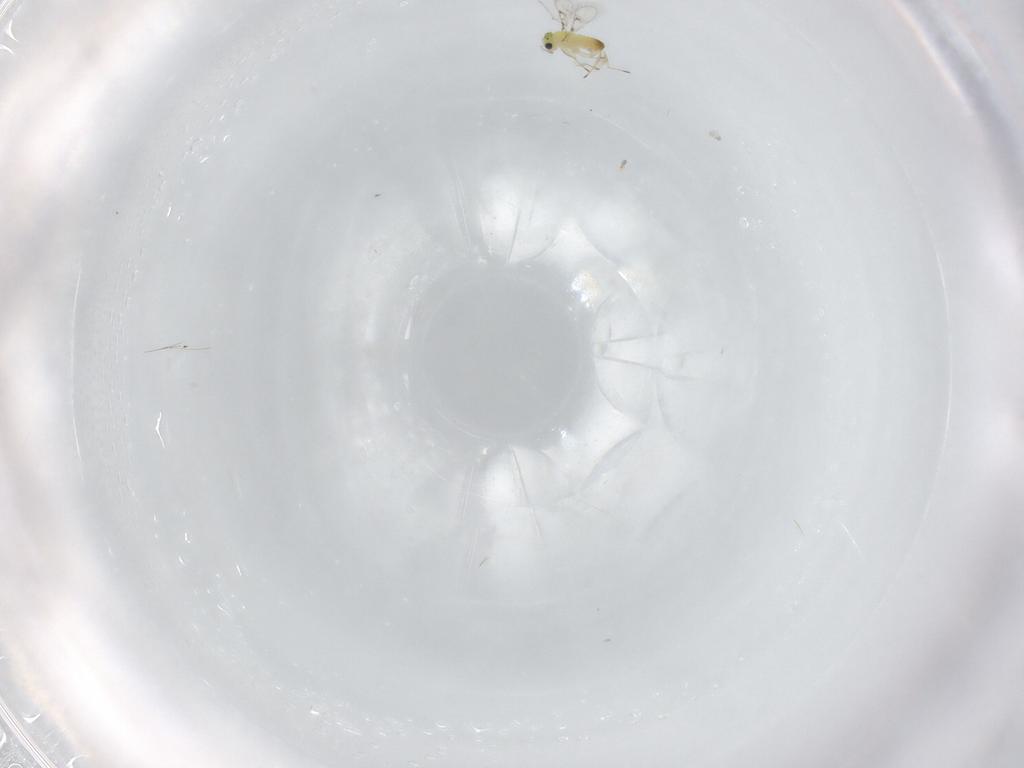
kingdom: Animalia
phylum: Arthropoda
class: Insecta
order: Hymenoptera
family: Trichogrammatidae
